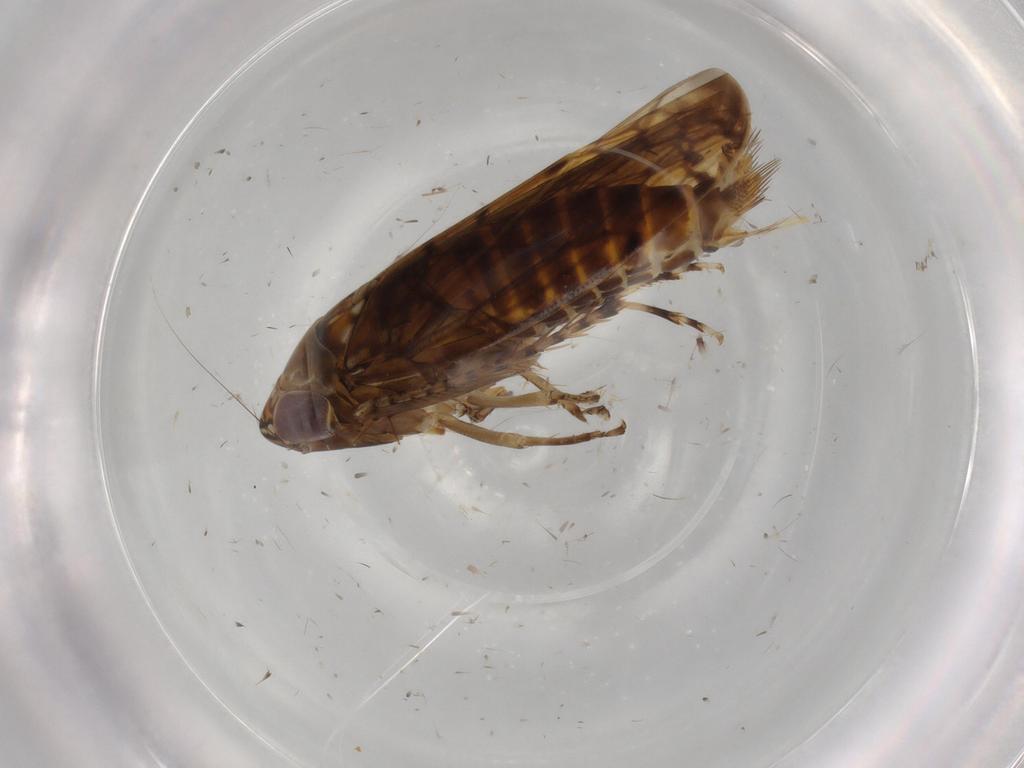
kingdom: Animalia
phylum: Arthropoda
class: Insecta
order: Hemiptera
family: Cicadellidae
